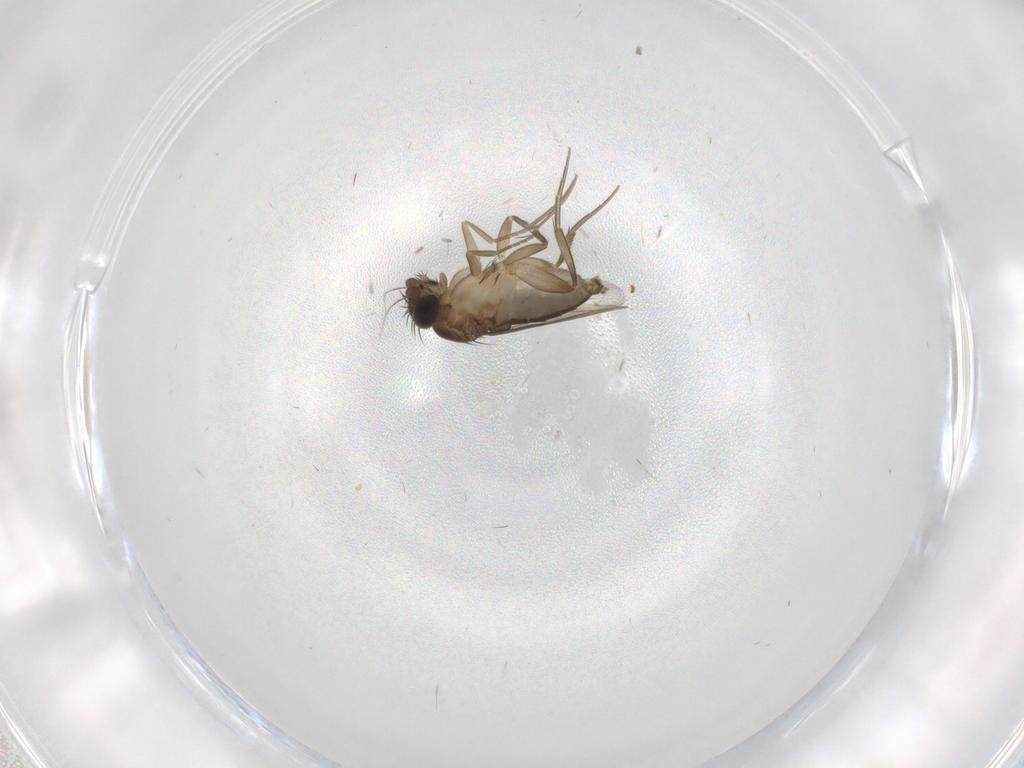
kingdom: Animalia
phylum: Arthropoda
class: Insecta
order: Diptera
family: Phoridae
